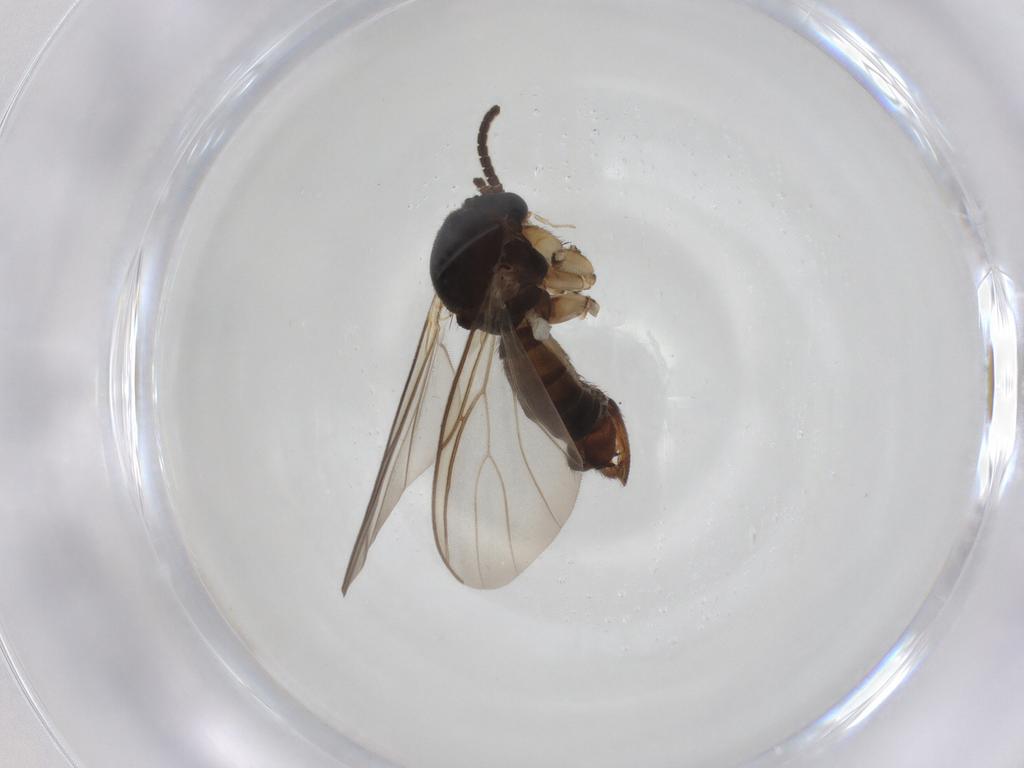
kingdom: Animalia
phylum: Arthropoda
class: Insecta
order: Diptera
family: Mycetophilidae
